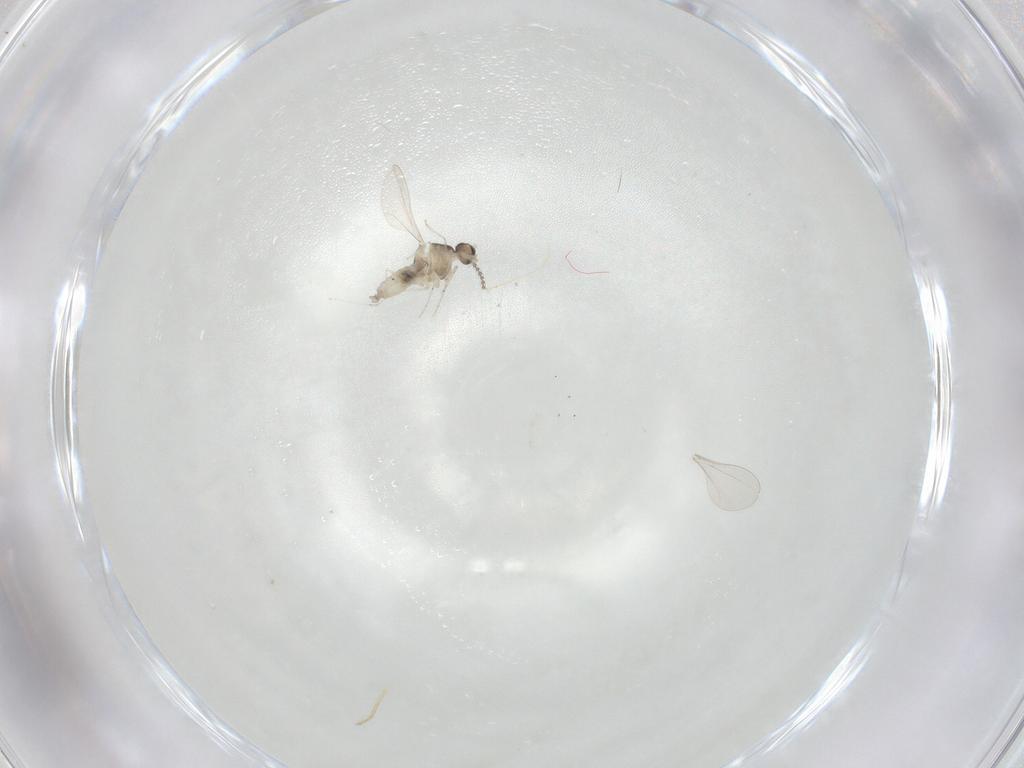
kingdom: Animalia
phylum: Arthropoda
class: Insecta
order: Diptera
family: Cecidomyiidae
